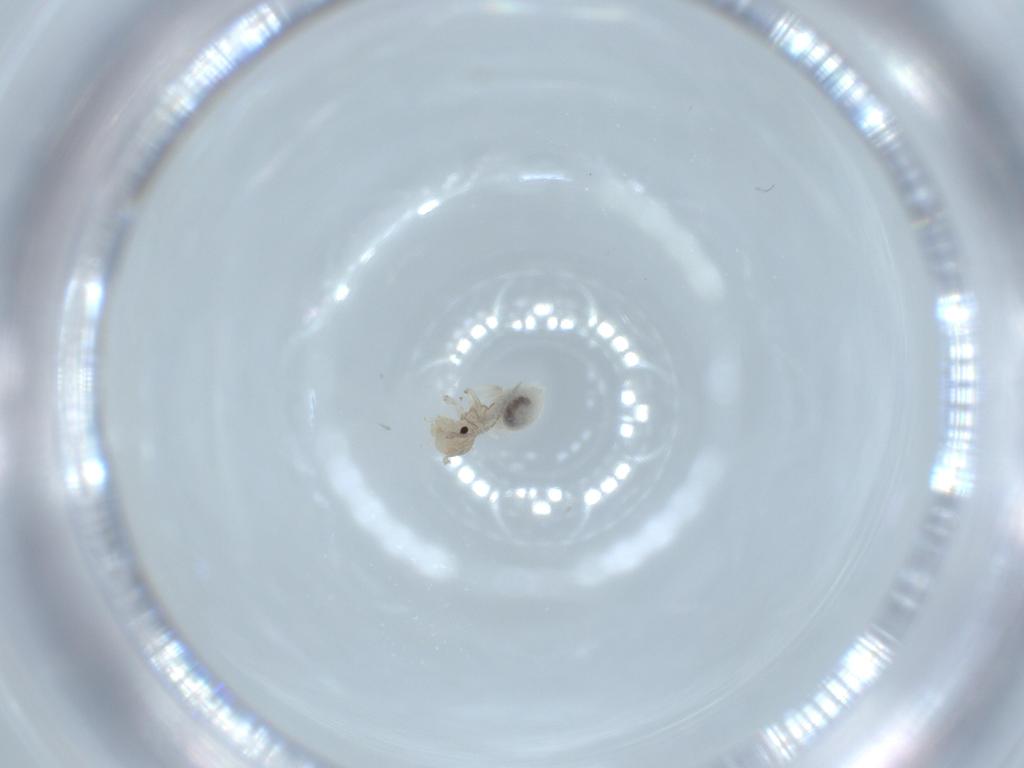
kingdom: Animalia
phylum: Arthropoda
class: Insecta
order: Psocodea
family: Amphipsocidae
